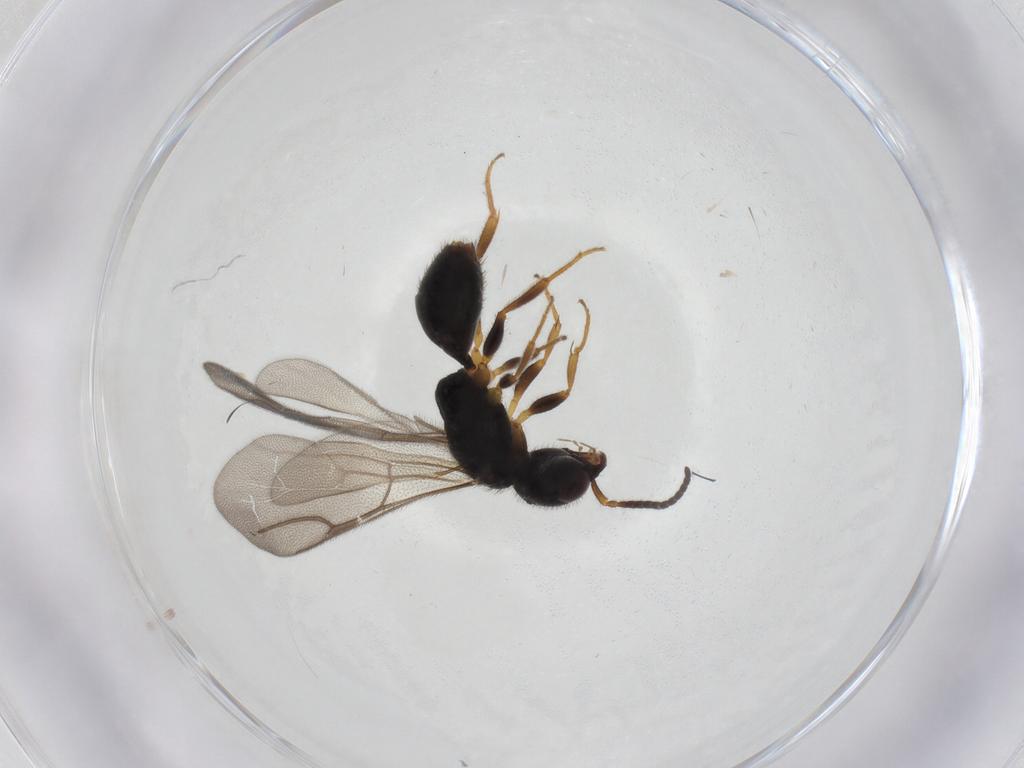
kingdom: Animalia
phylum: Arthropoda
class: Insecta
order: Hymenoptera
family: Bethylidae
